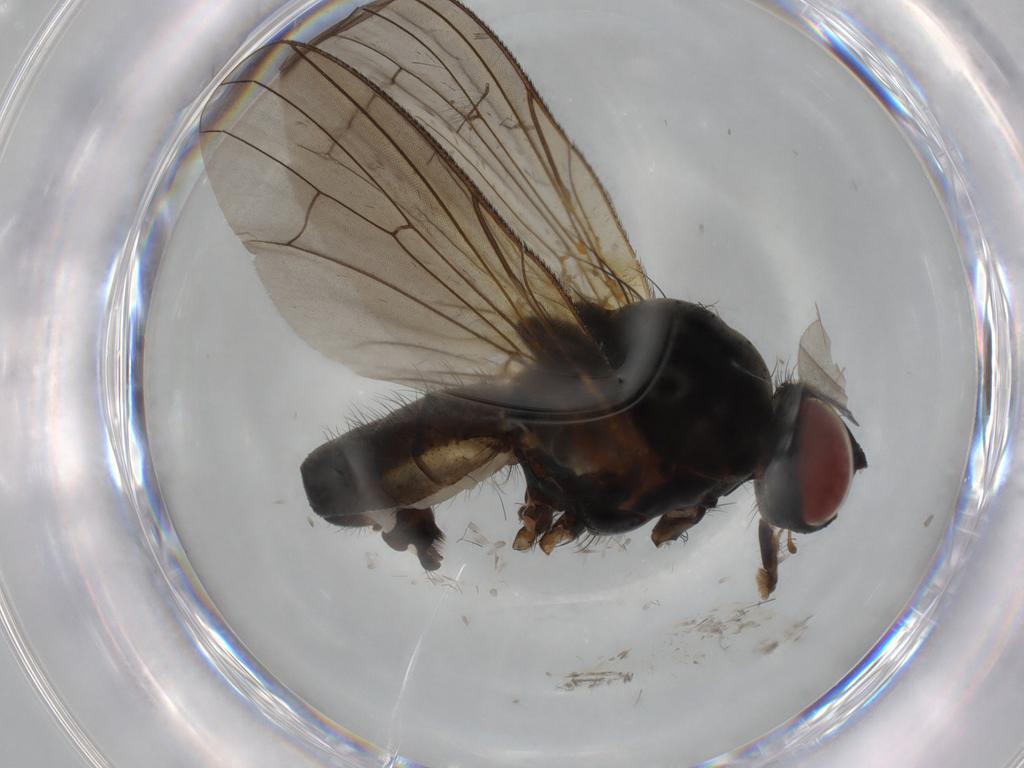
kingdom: Animalia
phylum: Arthropoda
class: Insecta
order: Diptera
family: Anthomyiidae
